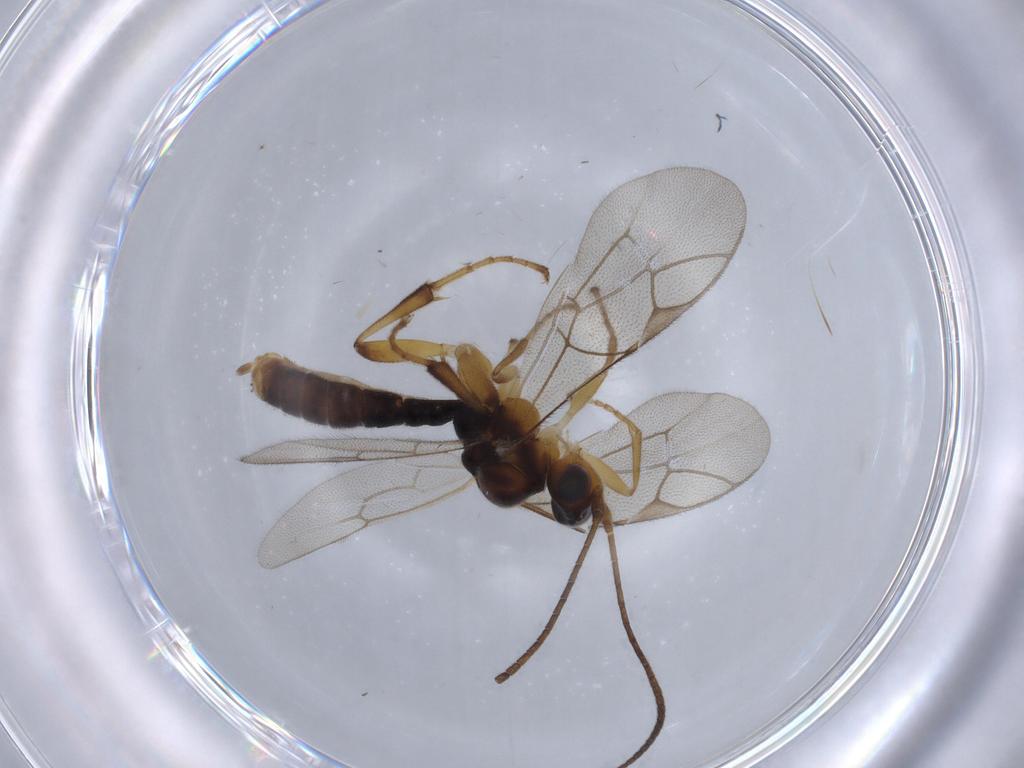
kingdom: Animalia
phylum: Arthropoda
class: Insecta
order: Hymenoptera
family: Ichneumonidae
